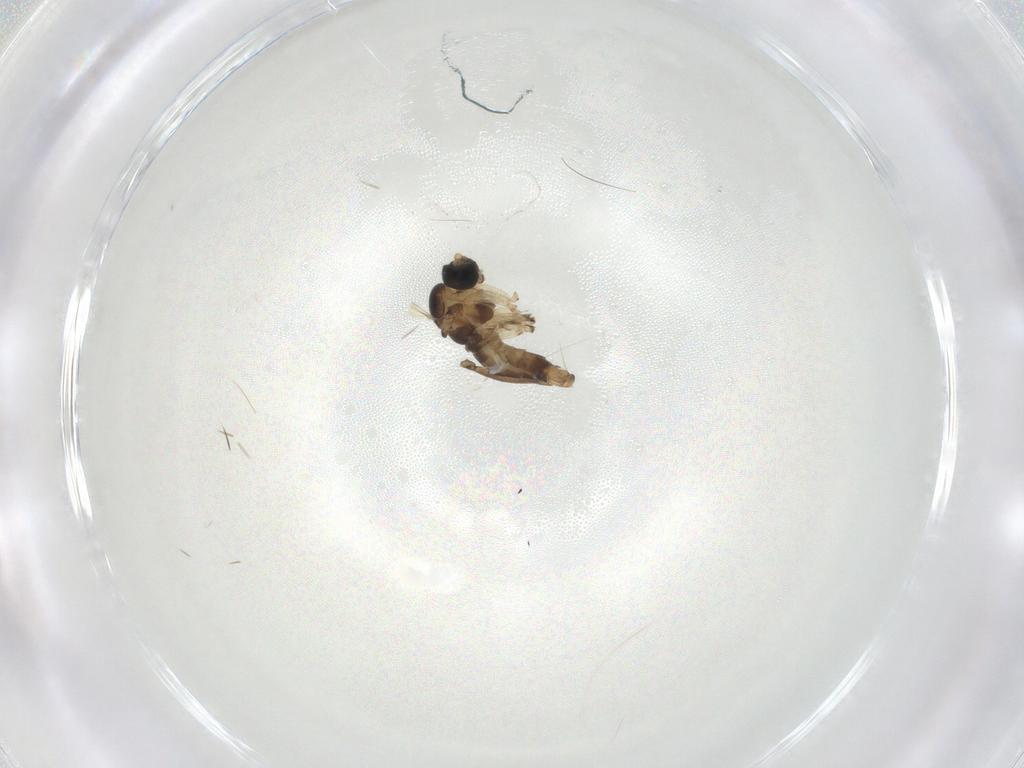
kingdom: Animalia
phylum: Arthropoda
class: Insecta
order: Diptera
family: Sciaridae
